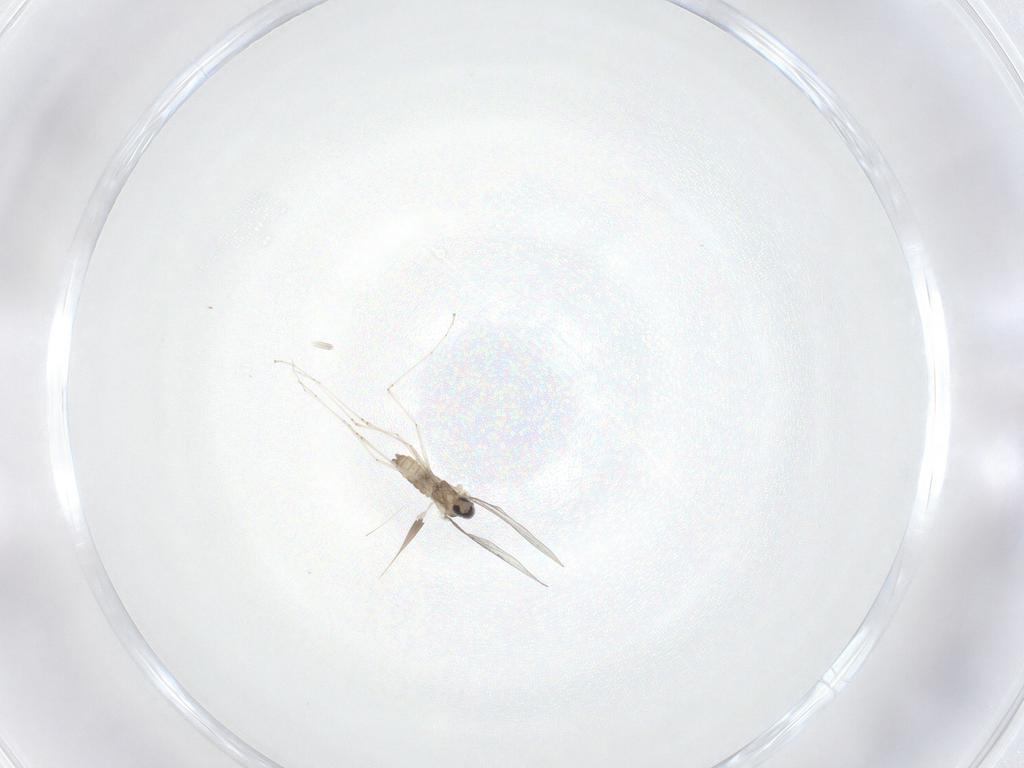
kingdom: Animalia
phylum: Arthropoda
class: Insecta
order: Diptera
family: Cecidomyiidae
